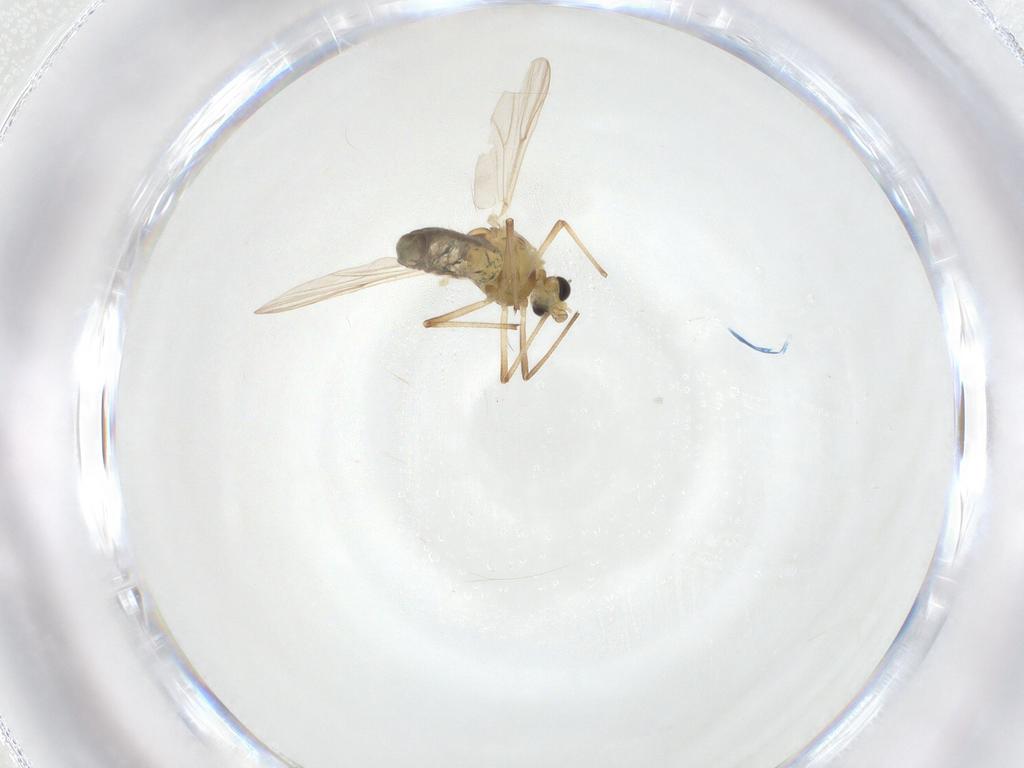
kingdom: Animalia
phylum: Arthropoda
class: Insecta
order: Diptera
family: Chironomidae
